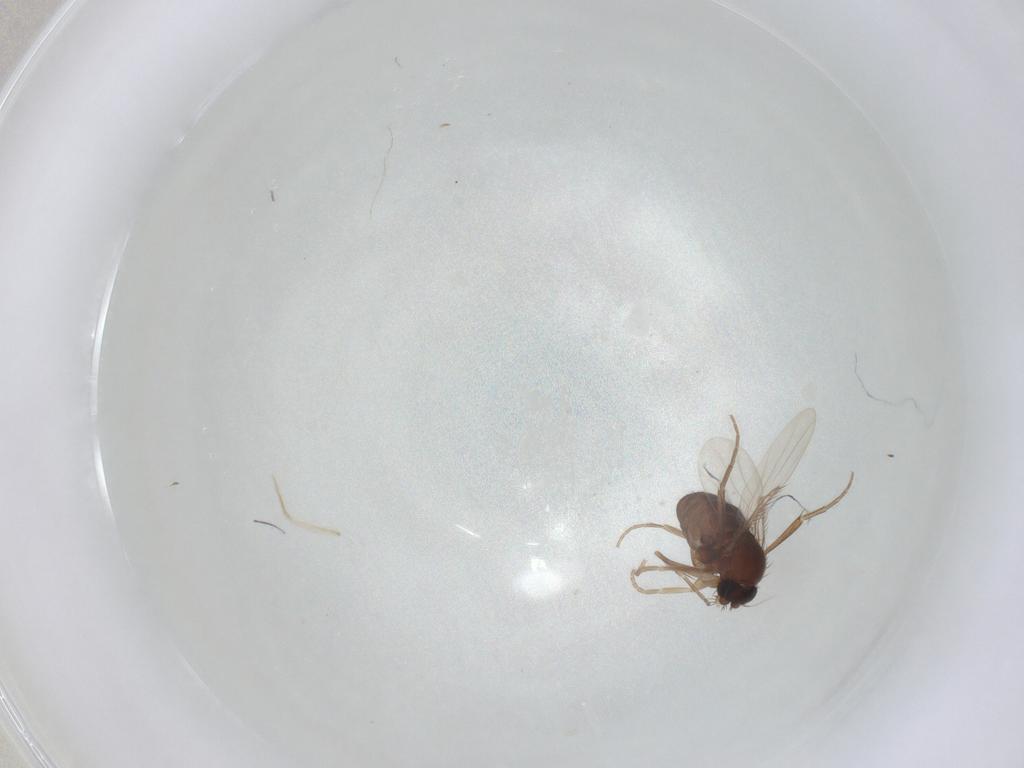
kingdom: Animalia
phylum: Arthropoda
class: Insecta
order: Diptera
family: Phoridae
